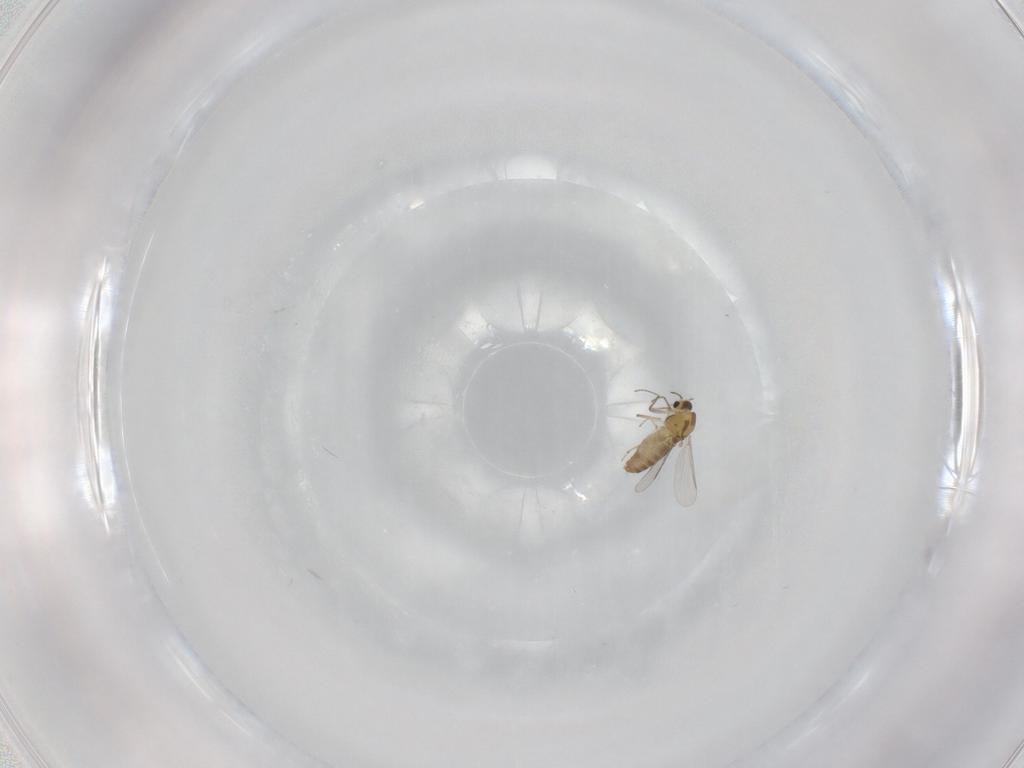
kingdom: Animalia
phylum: Arthropoda
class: Insecta
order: Diptera
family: Chironomidae
